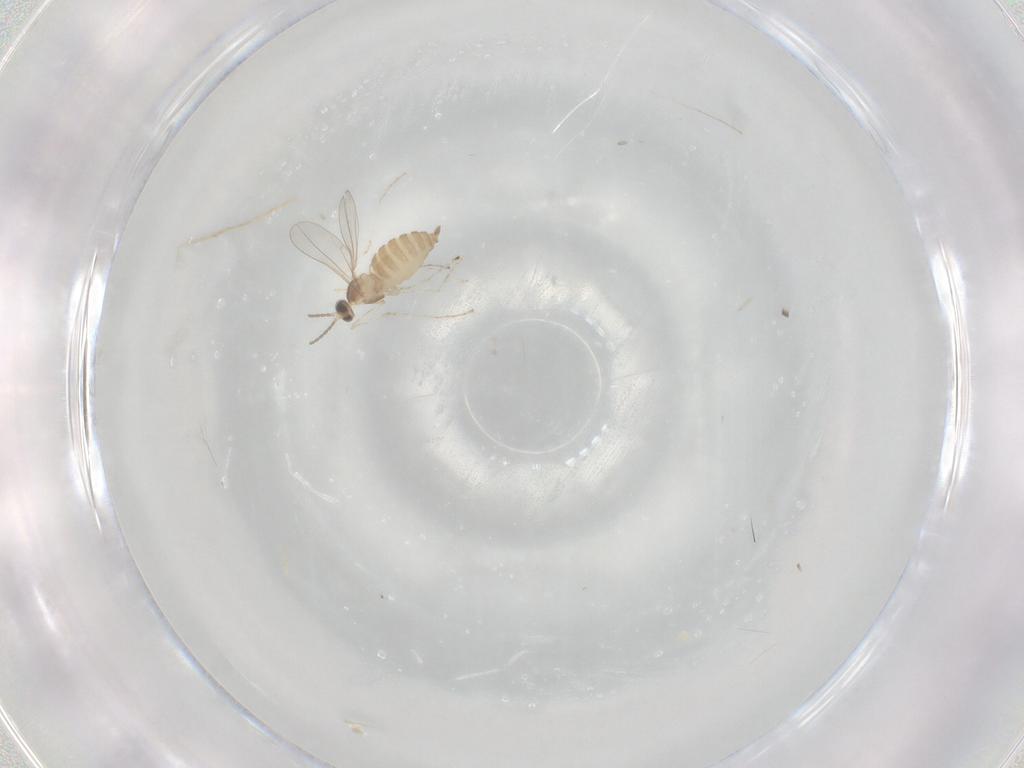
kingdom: Animalia
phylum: Arthropoda
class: Insecta
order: Diptera
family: Cecidomyiidae
